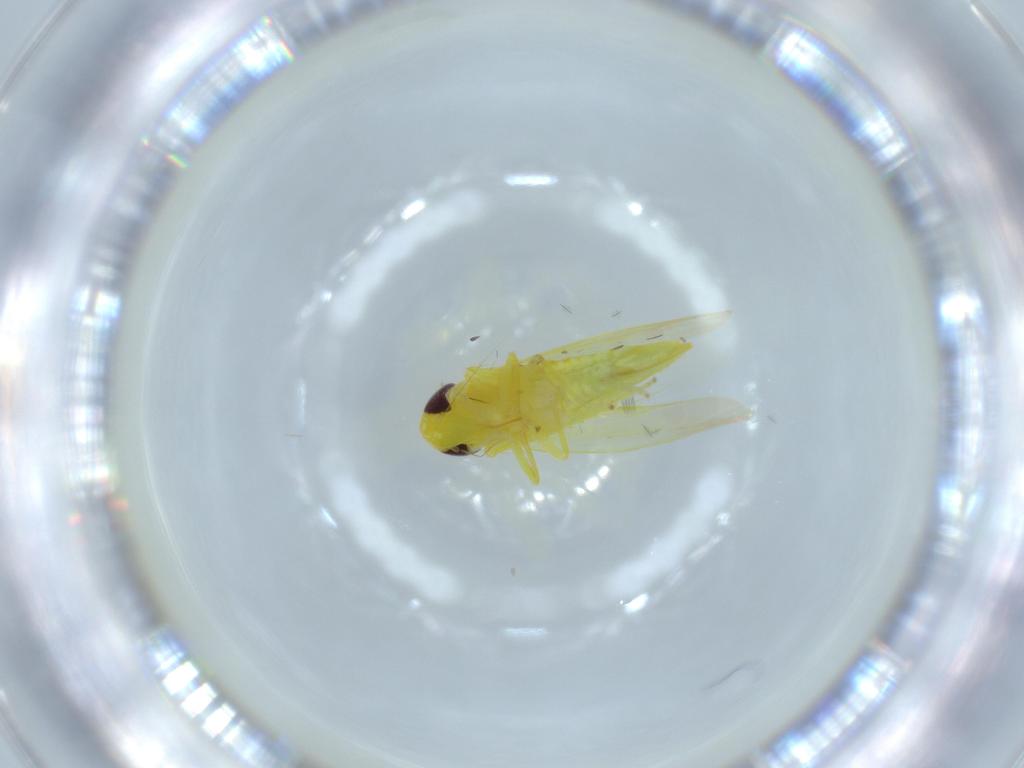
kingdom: Animalia
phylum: Arthropoda
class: Insecta
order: Hemiptera
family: Cicadellidae
